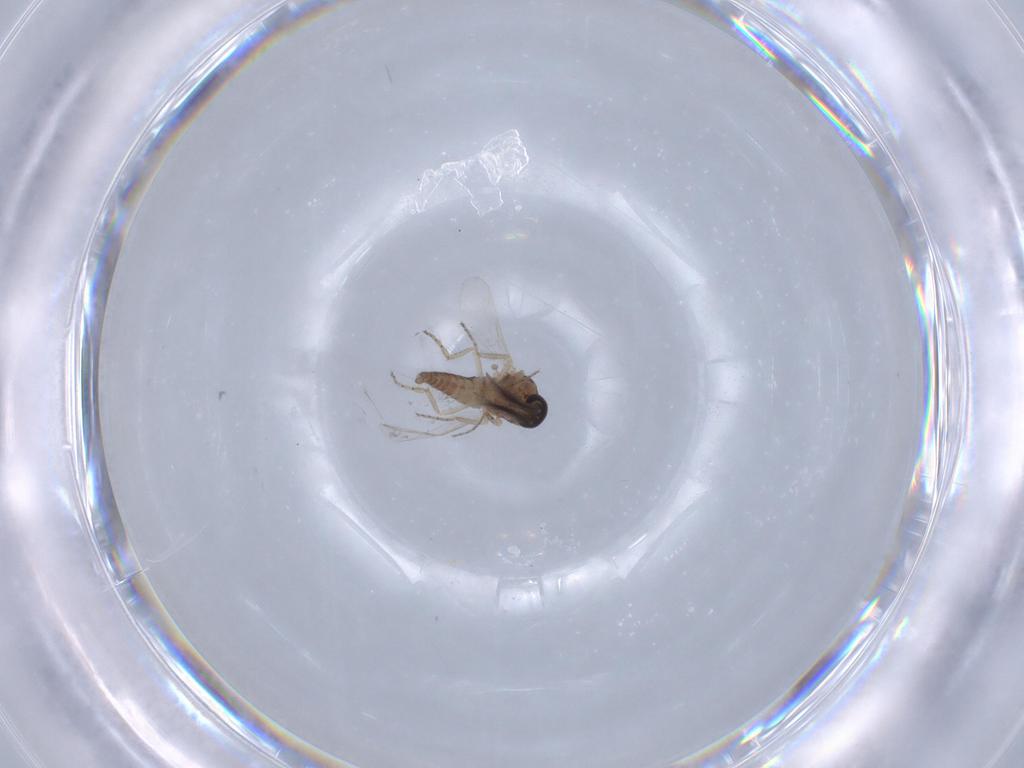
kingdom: Animalia
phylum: Arthropoda
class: Insecta
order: Diptera
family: Ceratopogonidae
